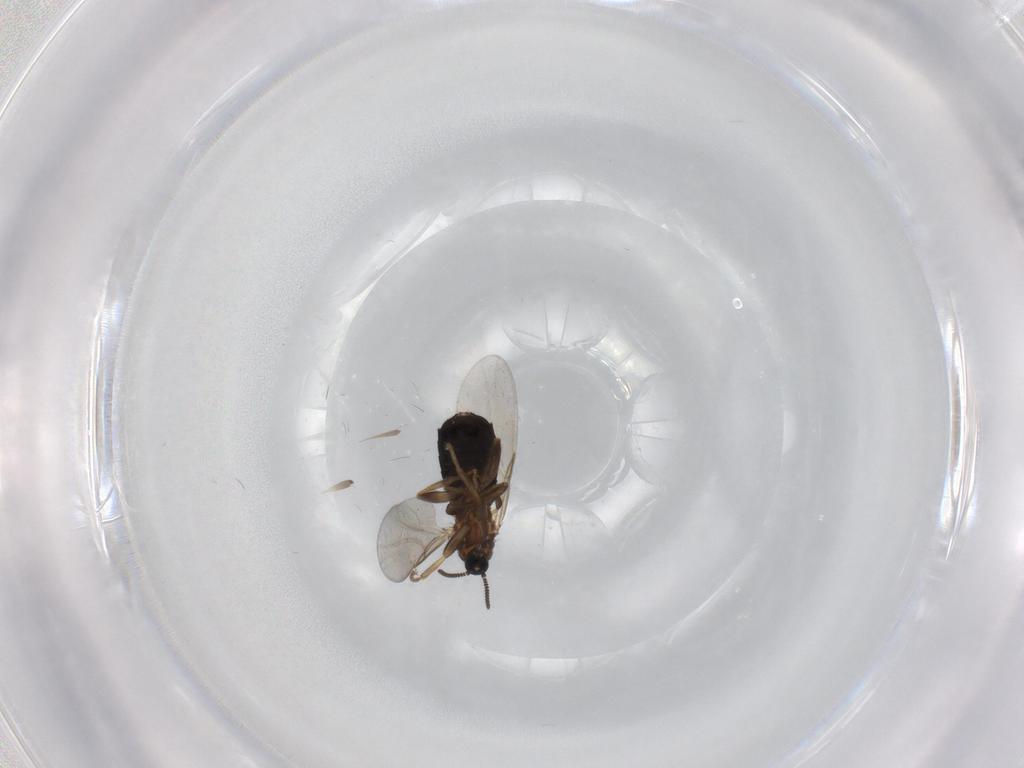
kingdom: Animalia
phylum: Arthropoda
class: Insecta
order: Diptera
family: Scatopsidae
